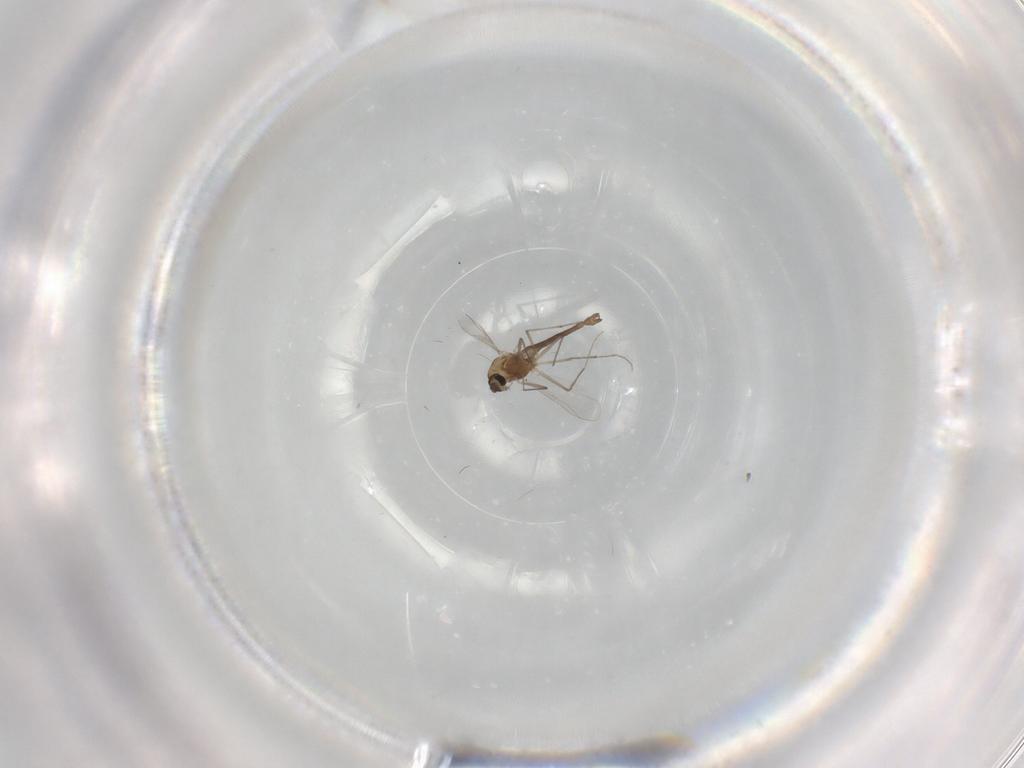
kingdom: Animalia
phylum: Arthropoda
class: Insecta
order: Diptera
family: Chironomidae
